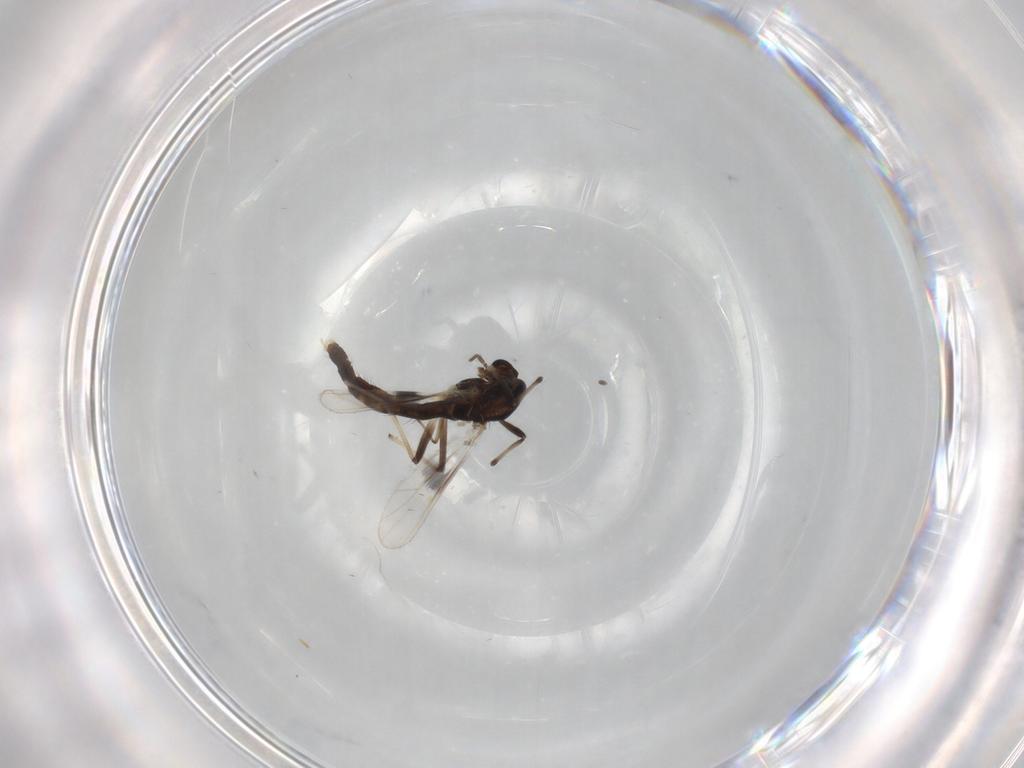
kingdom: Animalia
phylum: Arthropoda
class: Insecta
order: Diptera
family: Chironomidae
